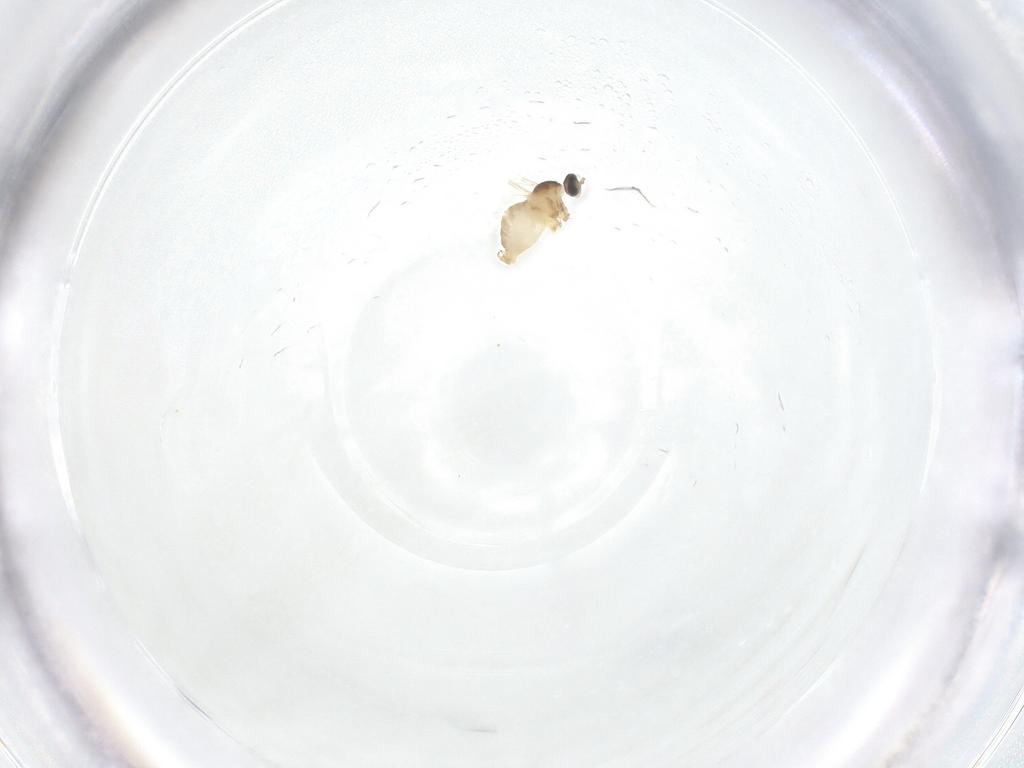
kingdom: Animalia
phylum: Arthropoda
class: Insecta
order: Diptera
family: Cecidomyiidae
